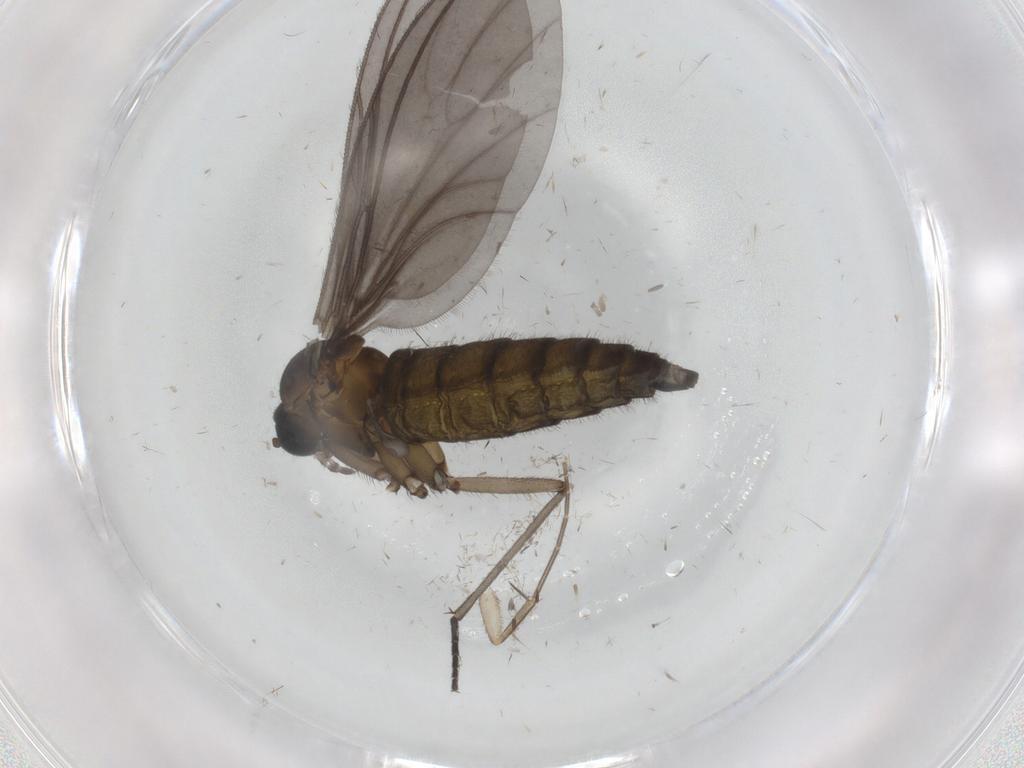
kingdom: Animalia
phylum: Arthropoda
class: Insecta
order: Diptera
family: Sciaridae
